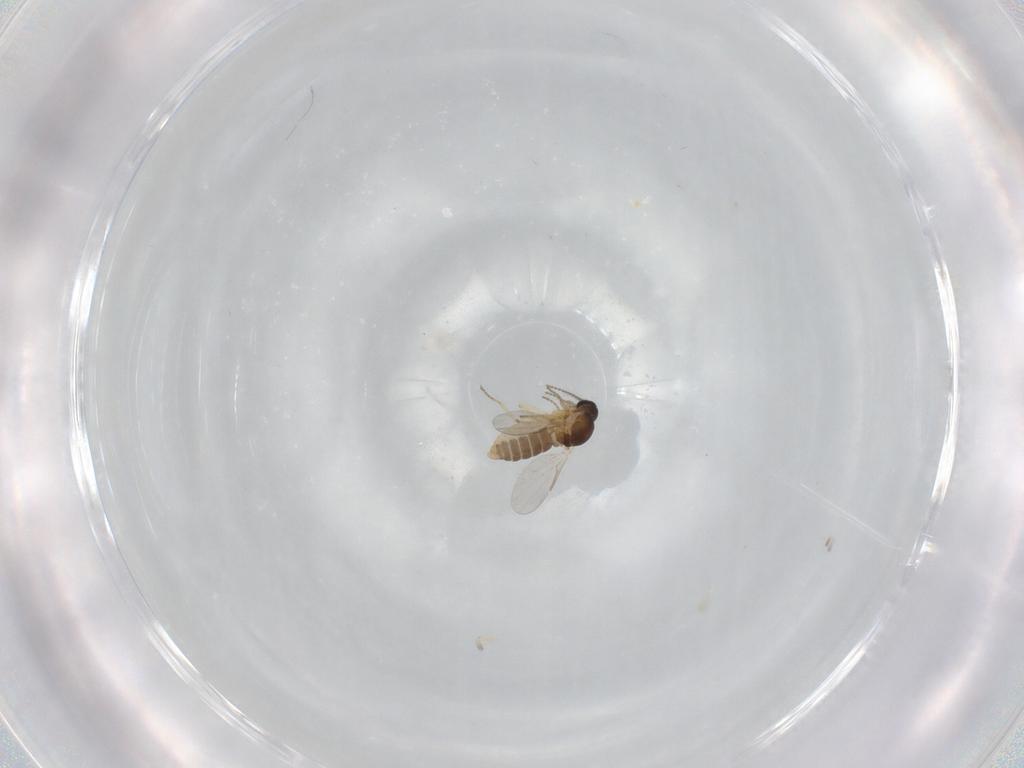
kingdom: Animalia
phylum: Arthropoda
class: Insecta
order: Diptera
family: Ceratopogonidae
